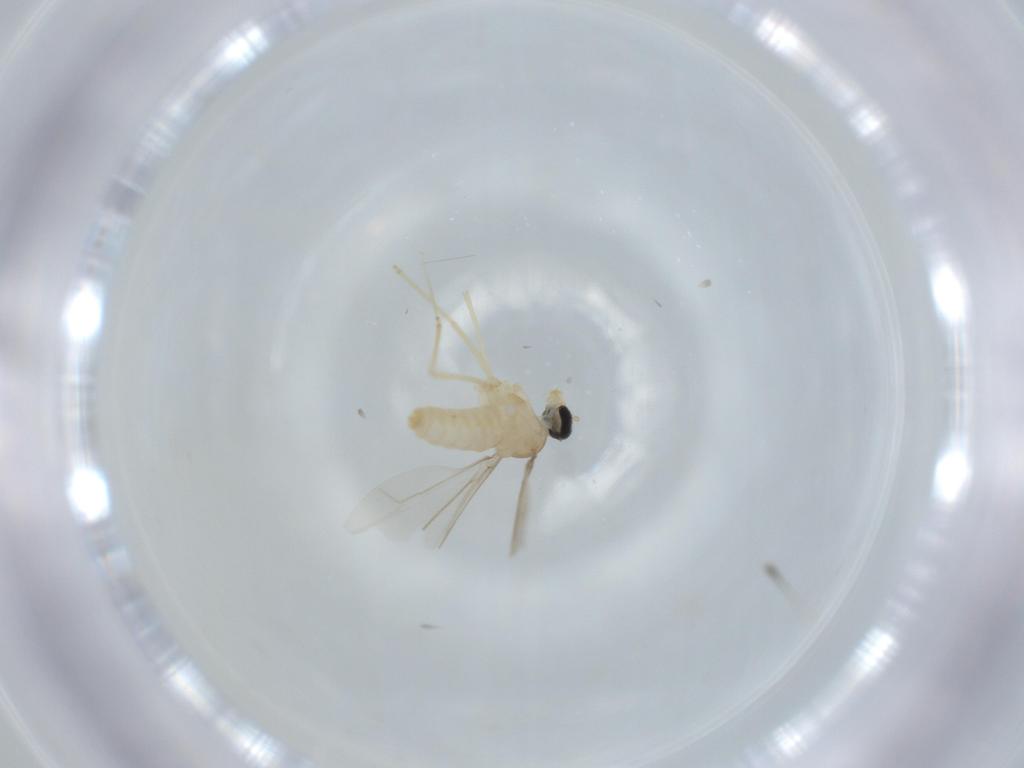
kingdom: Animalia
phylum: Arthropoda
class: Insecta
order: Diptera
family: Cecidomyiidae
